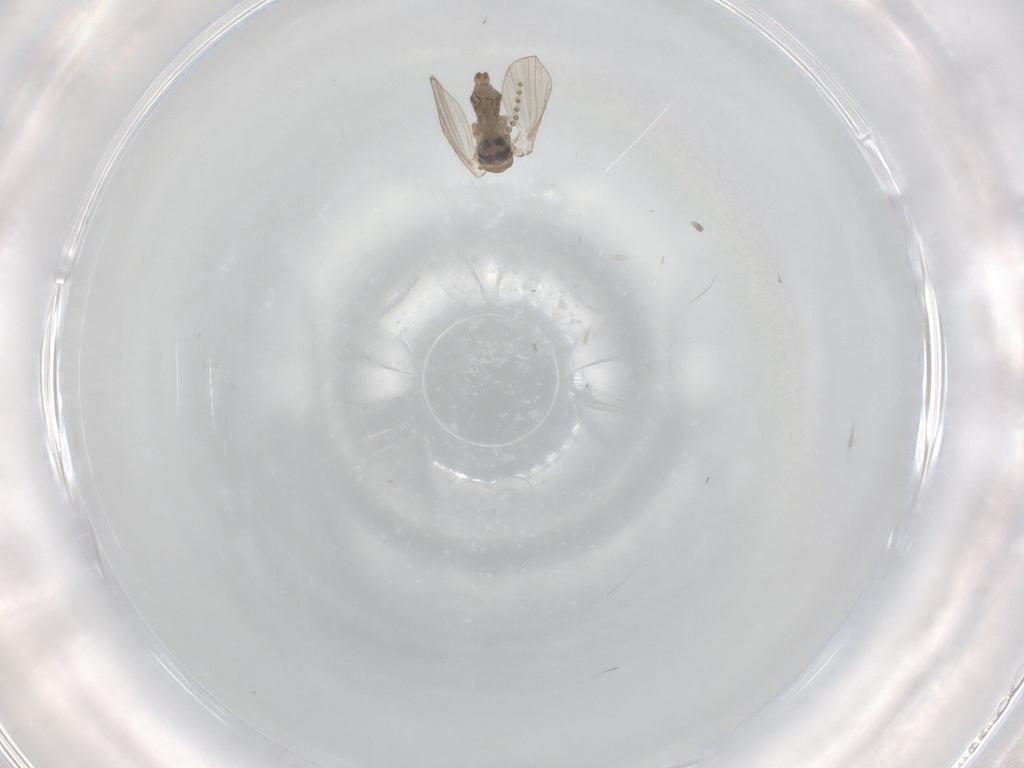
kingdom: Animalia
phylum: Arthropoda
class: Insecta
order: Diptera
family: Psychodidae
